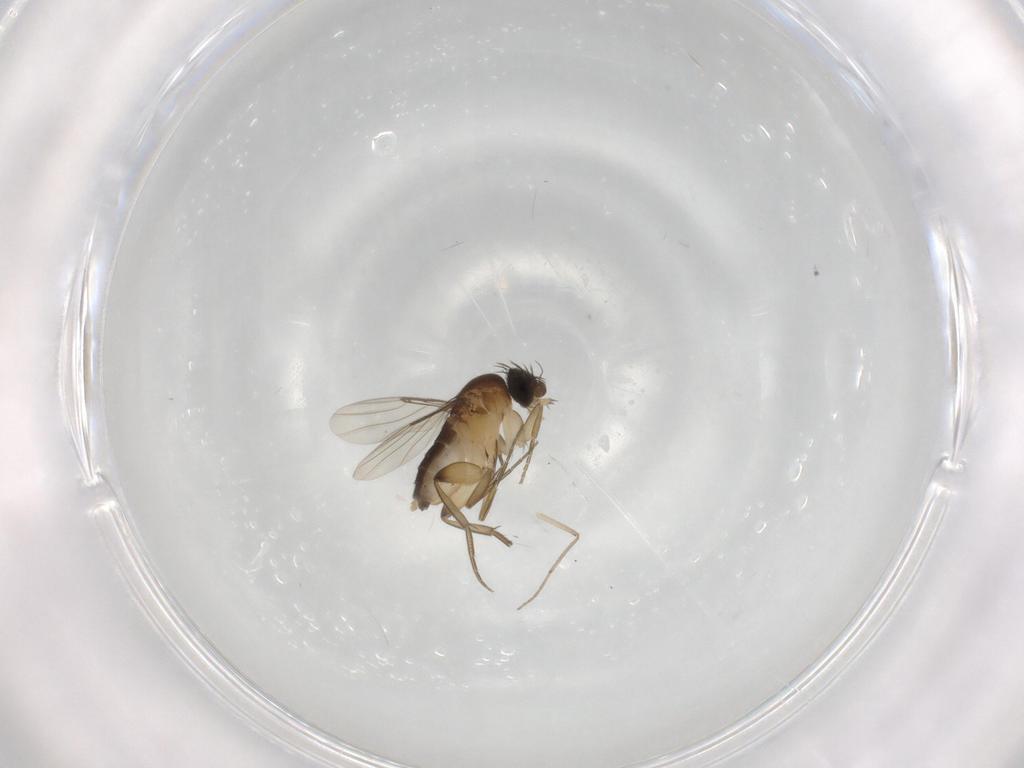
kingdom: Animalia
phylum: Arthropoda
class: Insecta
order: Diptera
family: Phoridae
